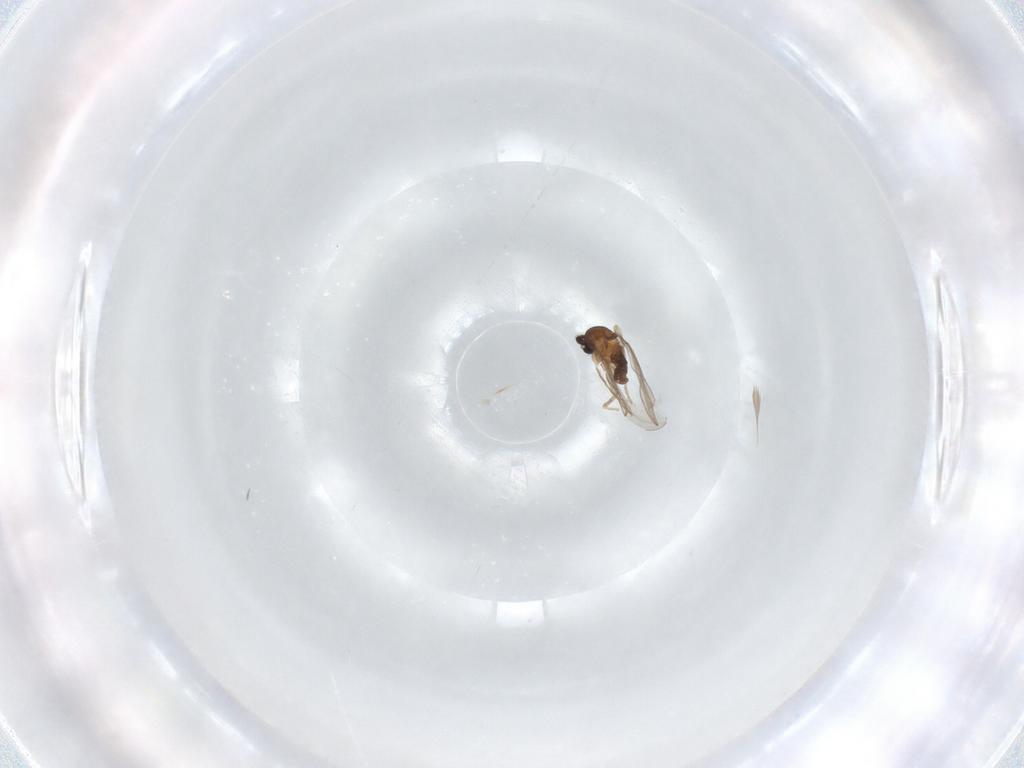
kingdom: Animalia
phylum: Arthropoda
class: Insecta
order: Diptera
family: Cecidomyiidae
